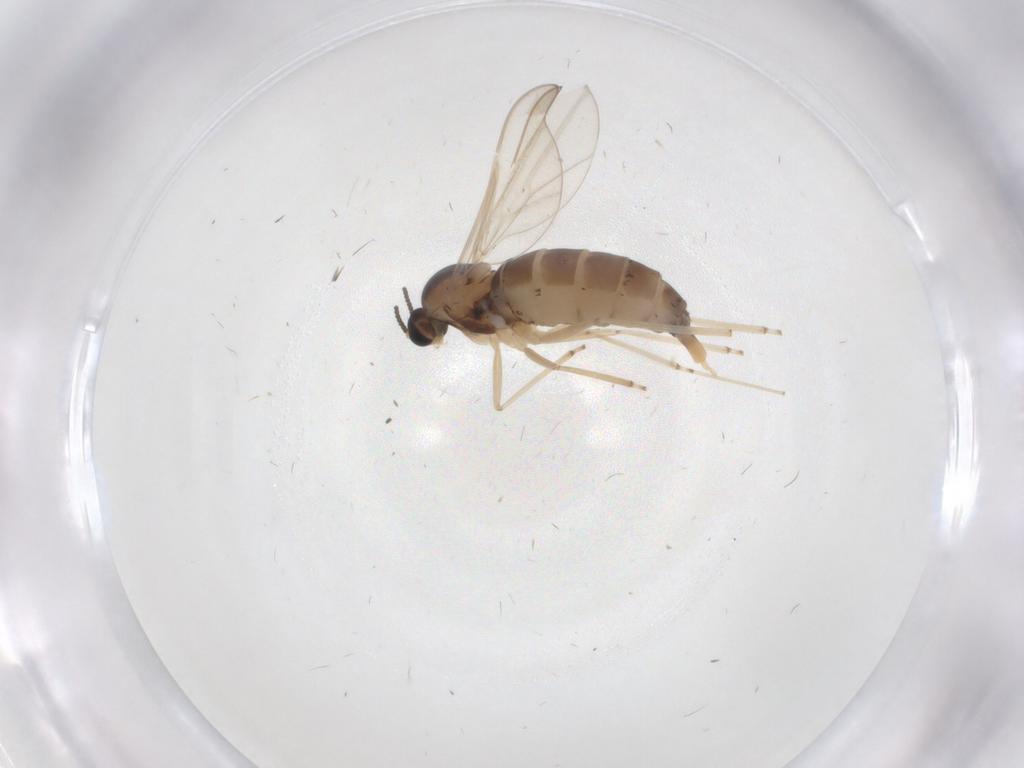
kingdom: Animalia
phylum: Arthropoda
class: Insecta
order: Diptera
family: Cecidomyiidae
